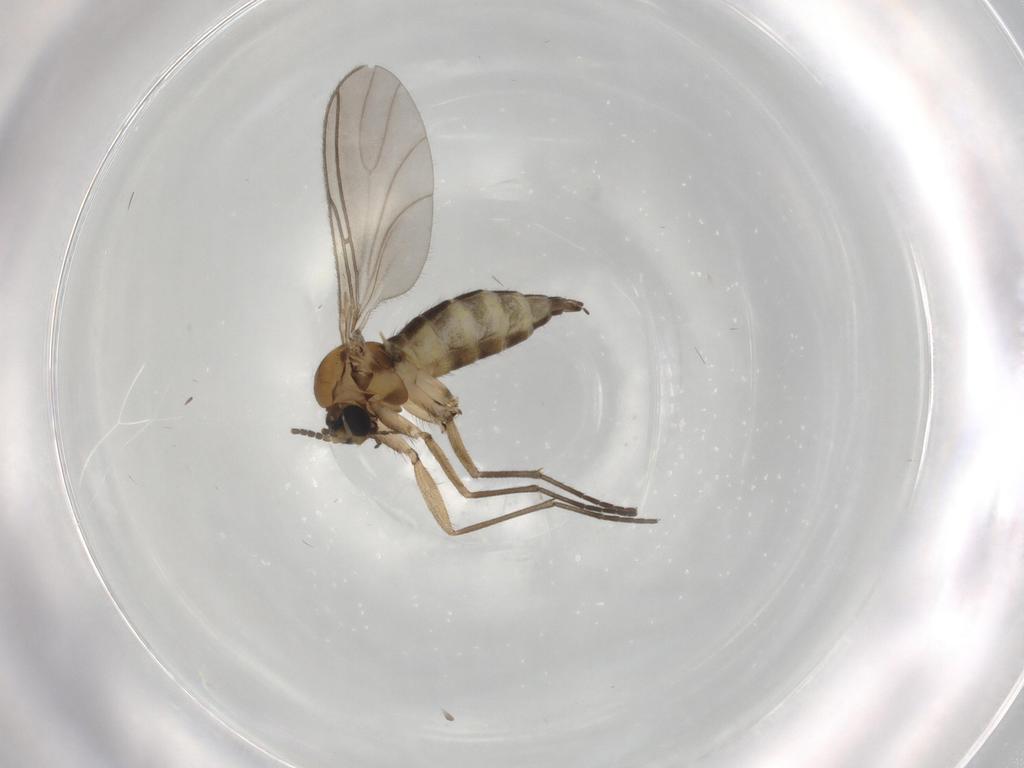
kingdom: Animalia
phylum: Arthropoda
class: Insecta
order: Diptera
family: Sciaridae
